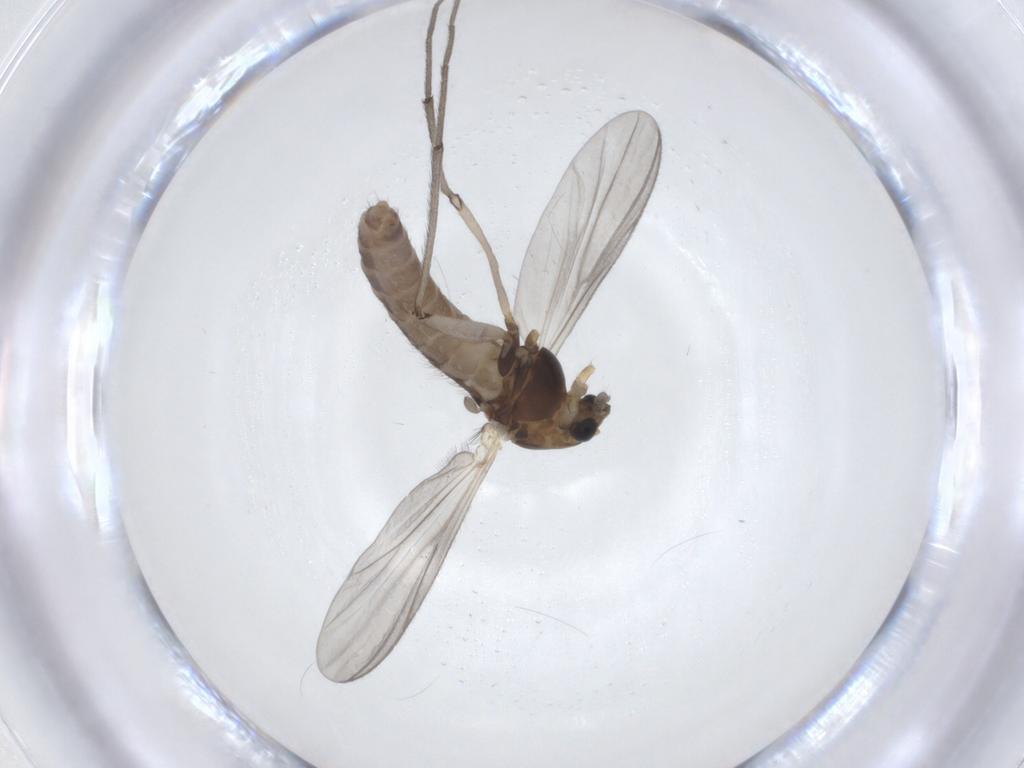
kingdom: Animalia
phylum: Arthropoda
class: Insecta
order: Diptera
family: Chironomidae
